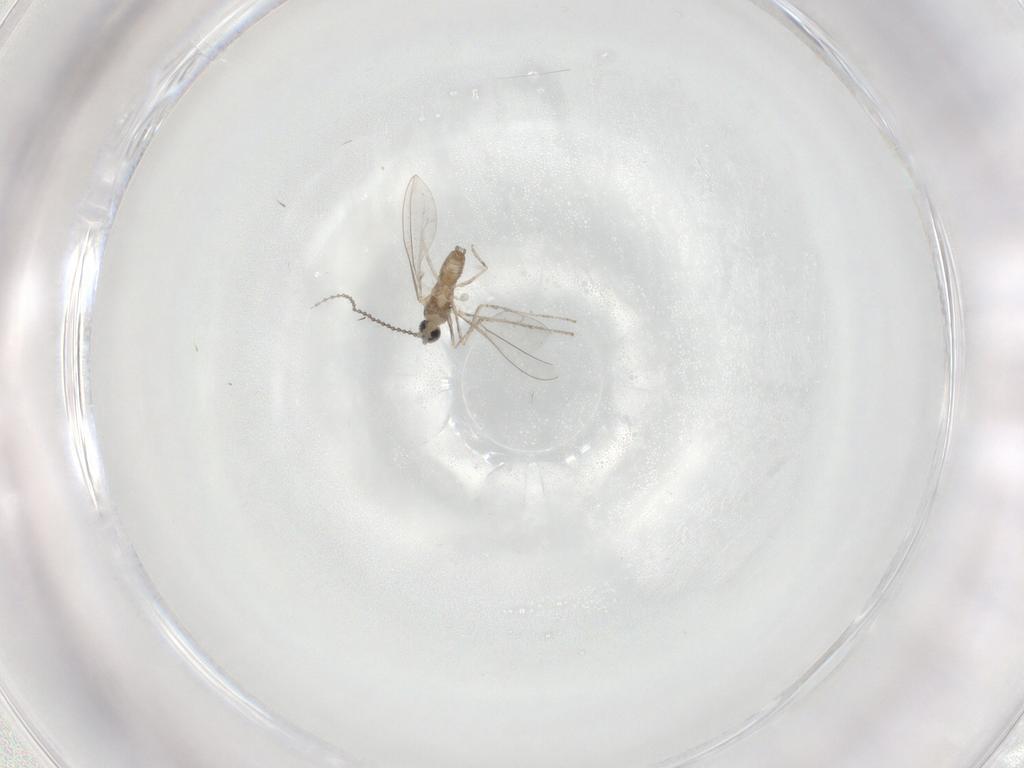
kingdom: Animalia
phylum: Arthropoda
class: Insecta
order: Diptera
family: Cecidomyiidae
